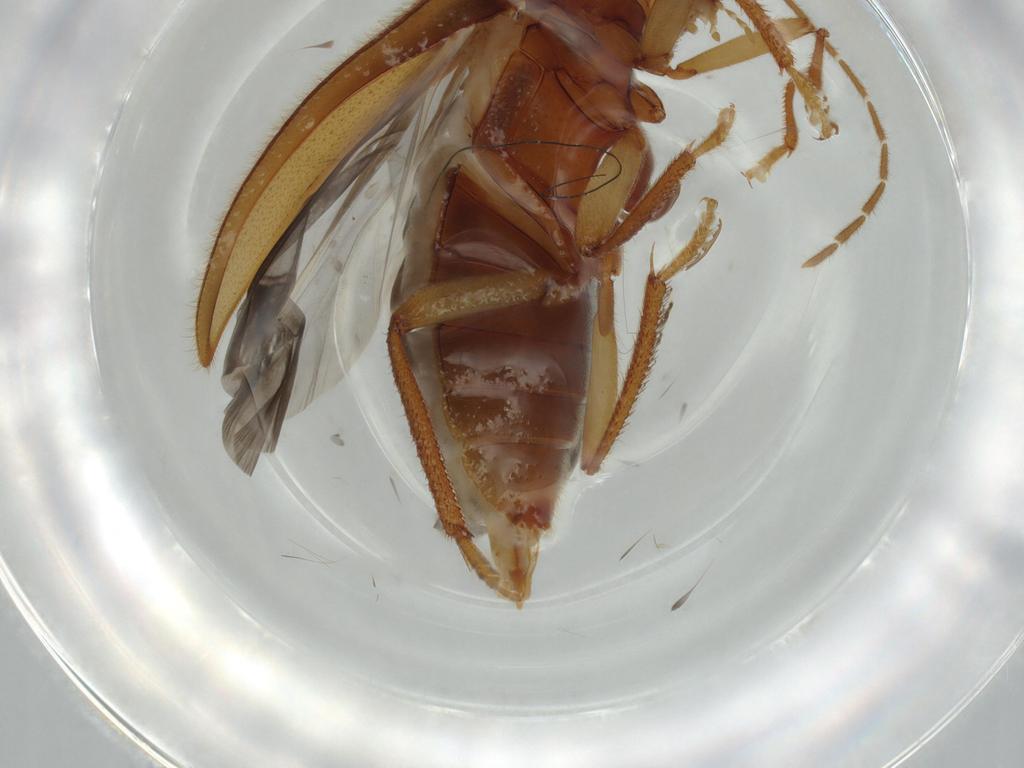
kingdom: Animalia
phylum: Arthropoda
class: Insecta
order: Coleoptera
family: Ptilodactylidae
